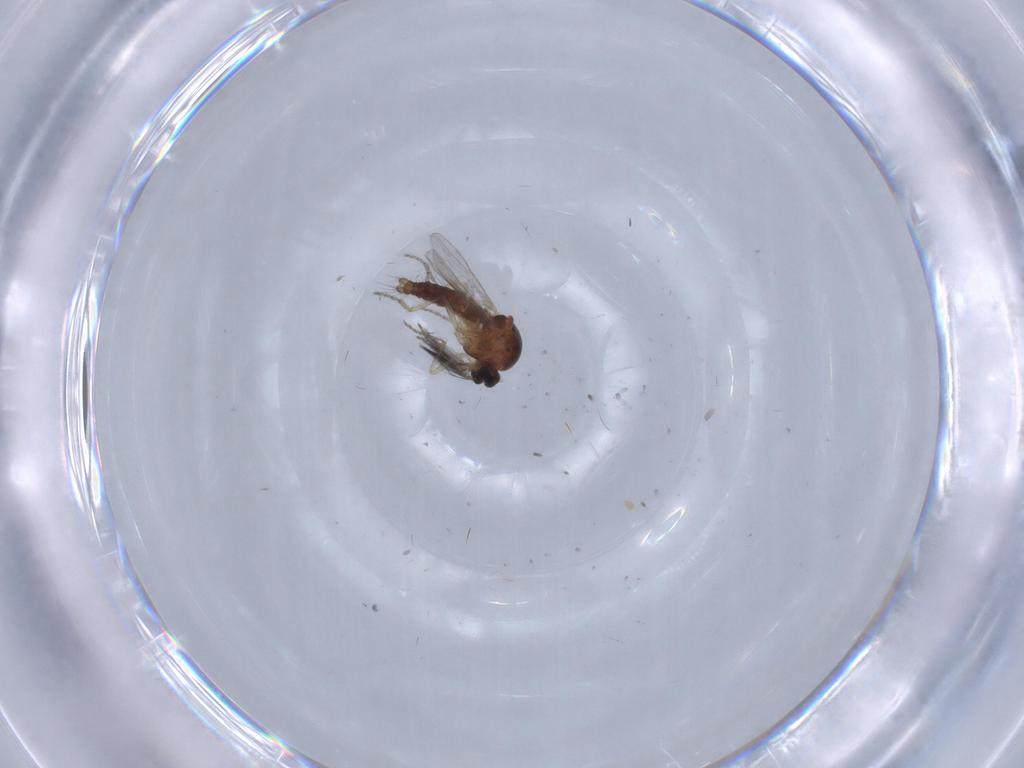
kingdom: Animalia
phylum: Arthropoda
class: Insecta
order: Diptera
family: Ceratopogonidae
